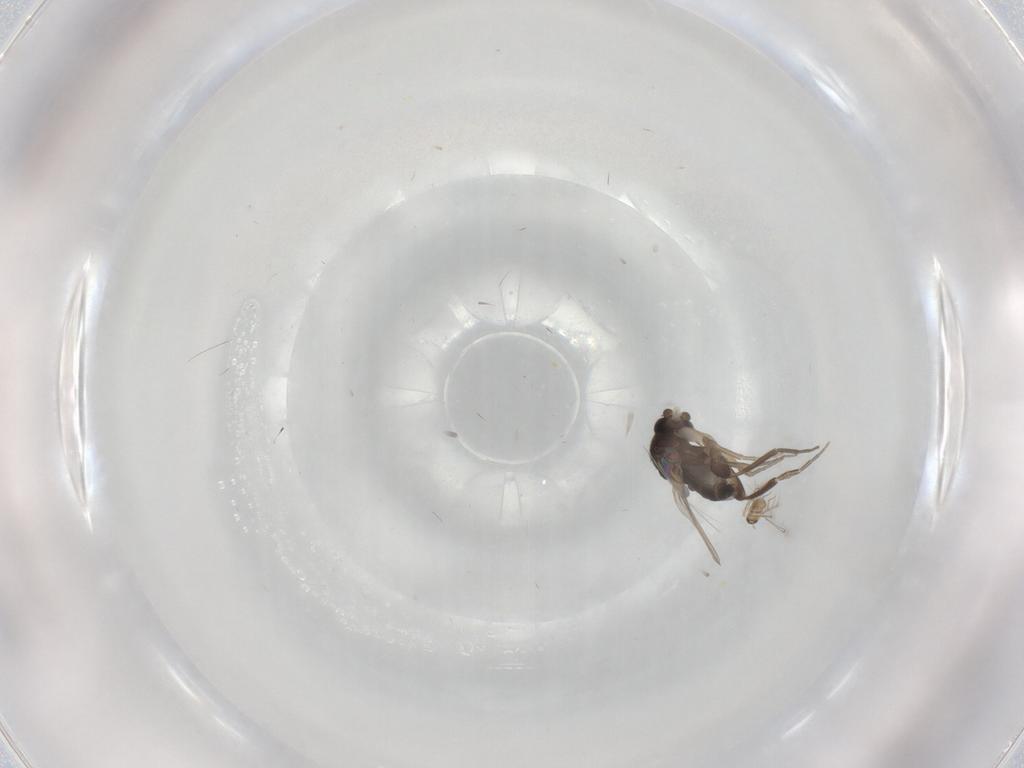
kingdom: Animalia
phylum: Arthropoda
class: Insecta
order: Diptera
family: Phoridae
